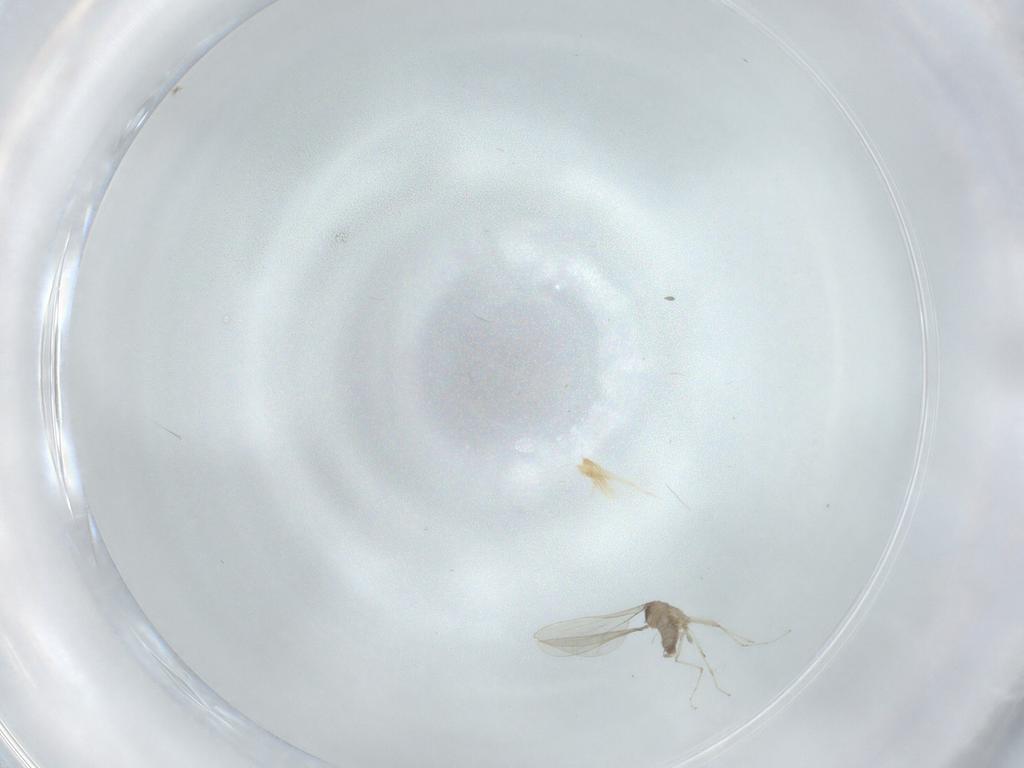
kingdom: Animalia
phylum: Arthropoda
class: Insecta
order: Diptera
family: Cecidomyiidae
